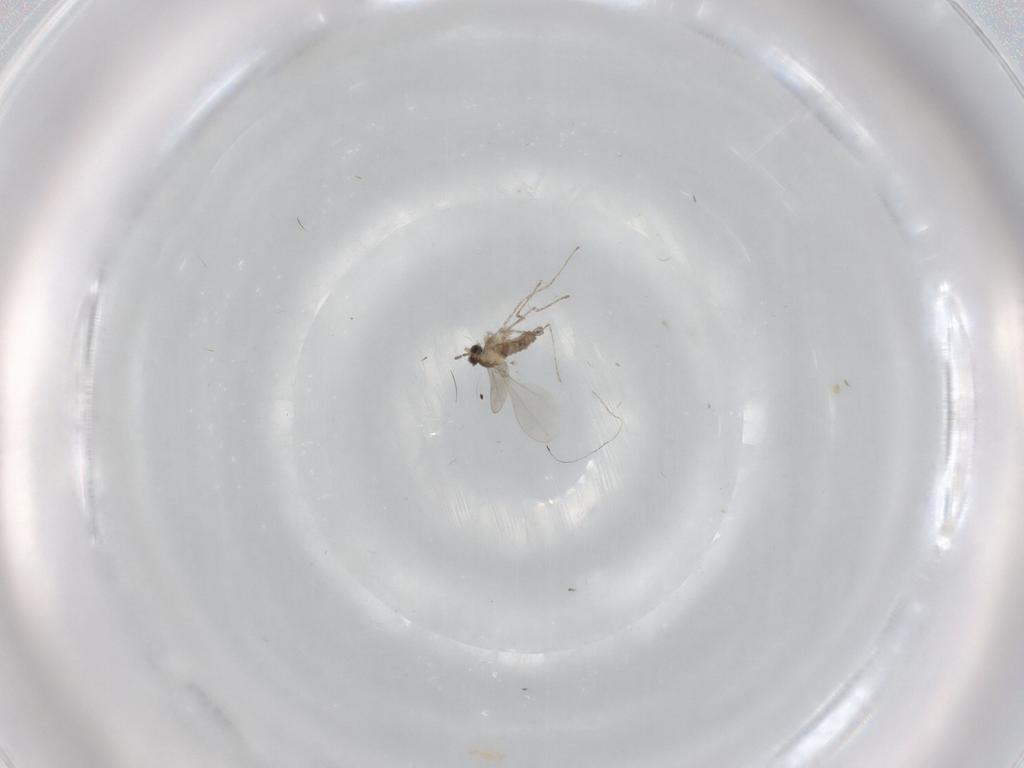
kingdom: Animalia
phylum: Arthropoda
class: Insecta
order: Diptera
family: Cecidomyiidae
